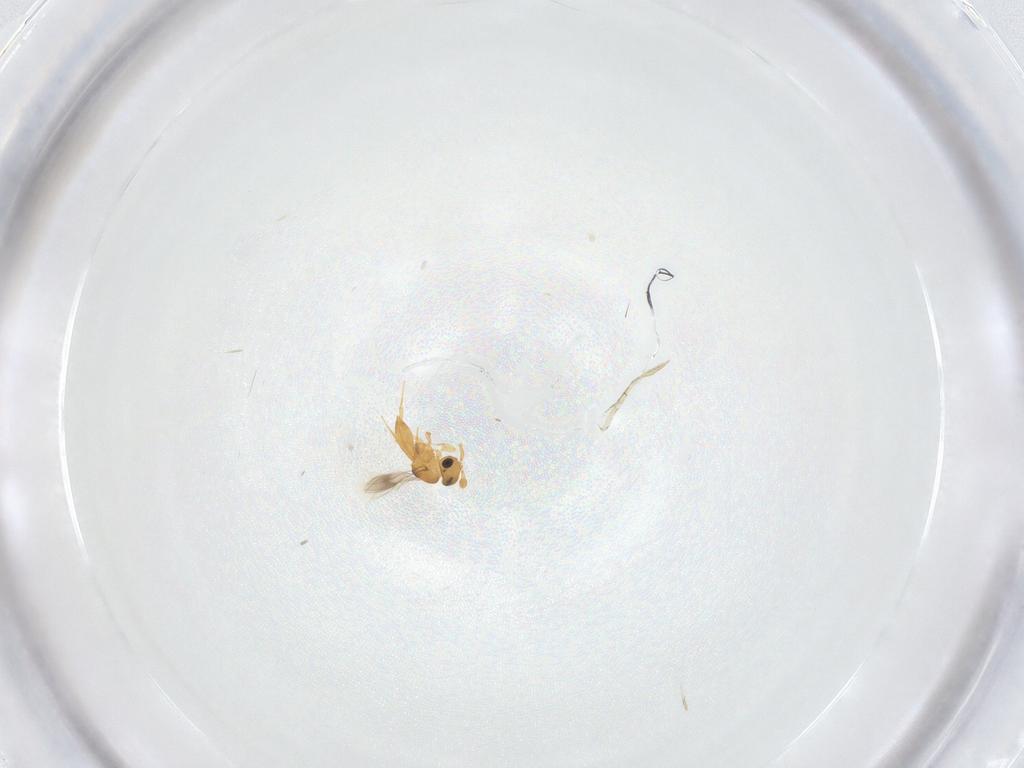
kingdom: Animalia
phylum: Arthropoda
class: Insecta
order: Hymenoptera
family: Scelionidae
